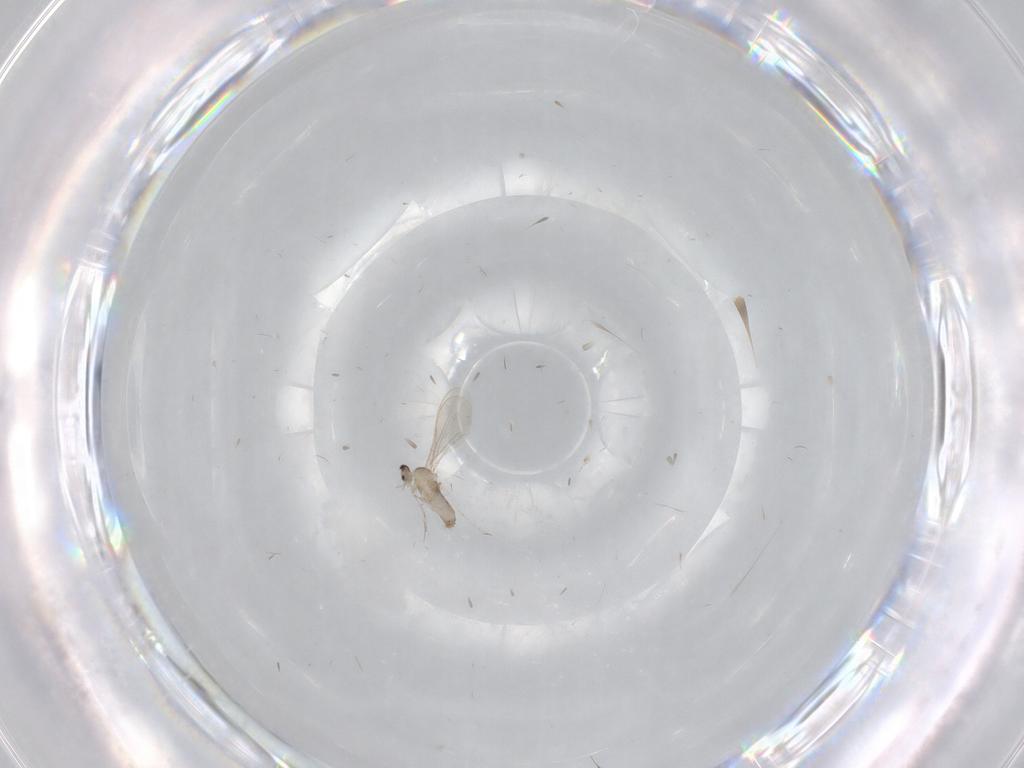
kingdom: Animalia
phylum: Arthropoda
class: Insecta
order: Diptera
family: Cecidomyiidae
